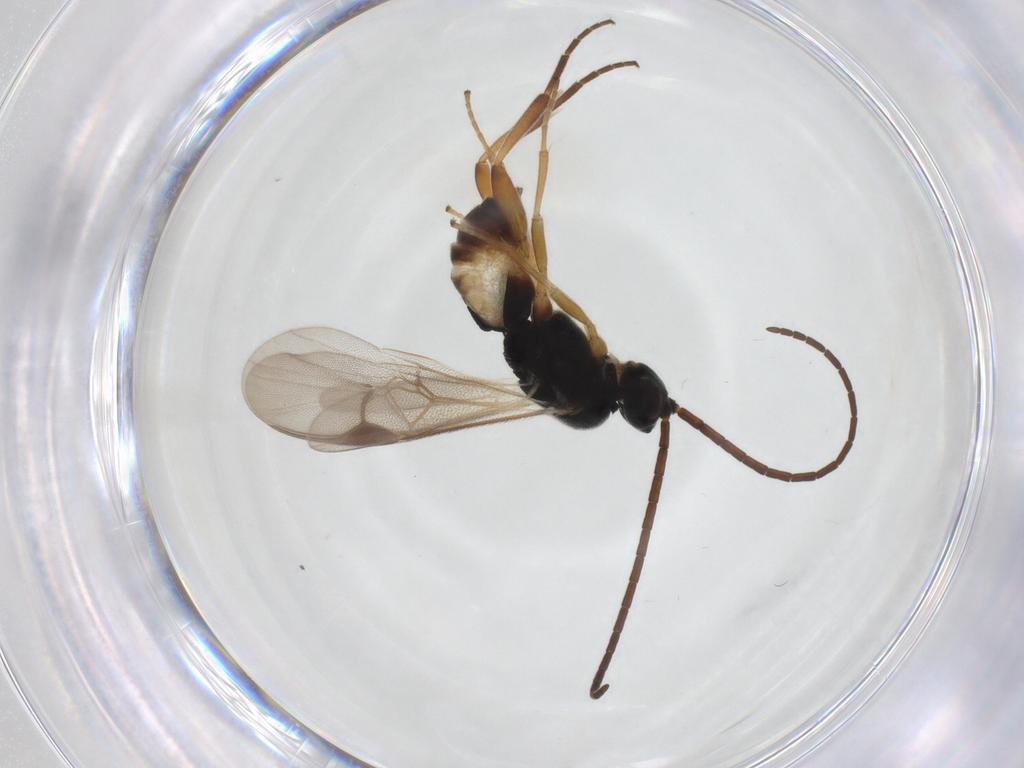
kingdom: Animalia
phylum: Arthropoda
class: Insecta
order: Hymenoptera
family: Braconidae
